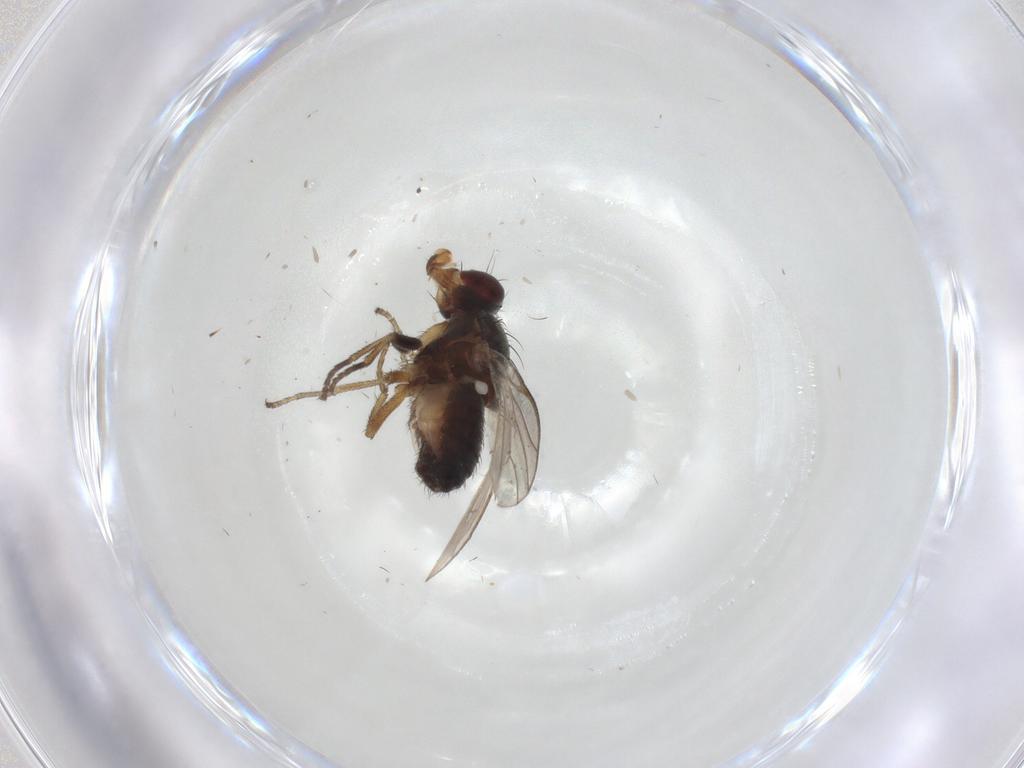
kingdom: Animalia
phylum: Arthropoda
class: Insecta
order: Diptera
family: Heleomyzidae
